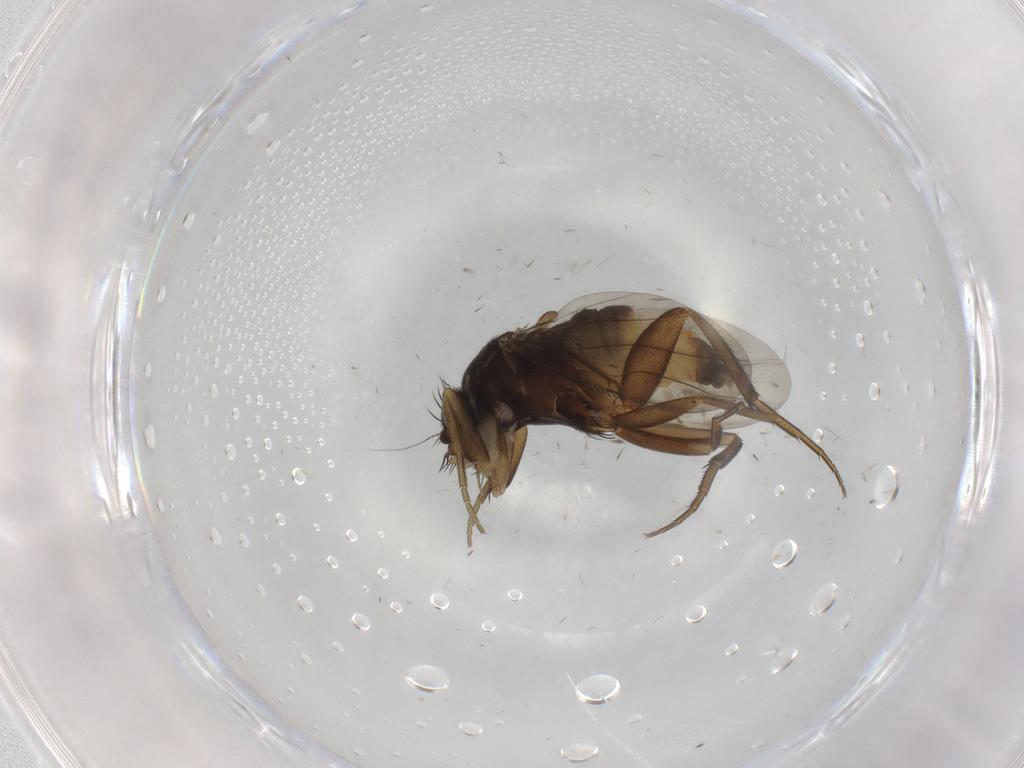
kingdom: Animalia
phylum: Arthropoda
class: Insecta
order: Diptera
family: Phoridae
